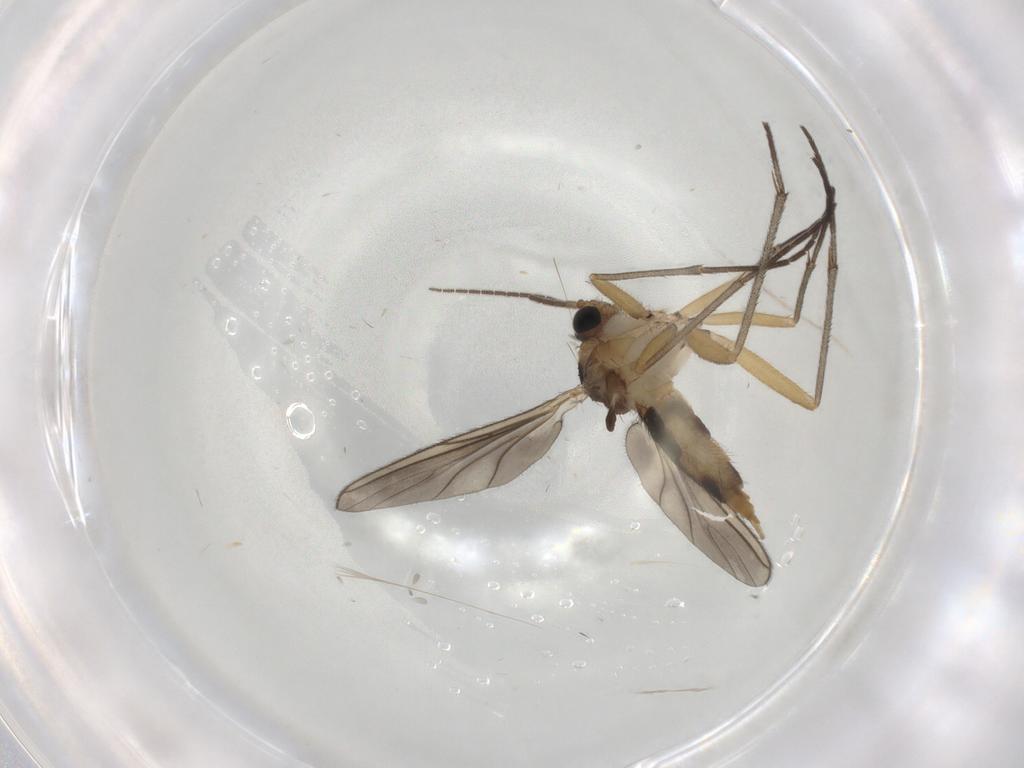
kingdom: Animalia
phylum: Arthropoda
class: Insecta
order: Diptera
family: Cecidomyiidae
